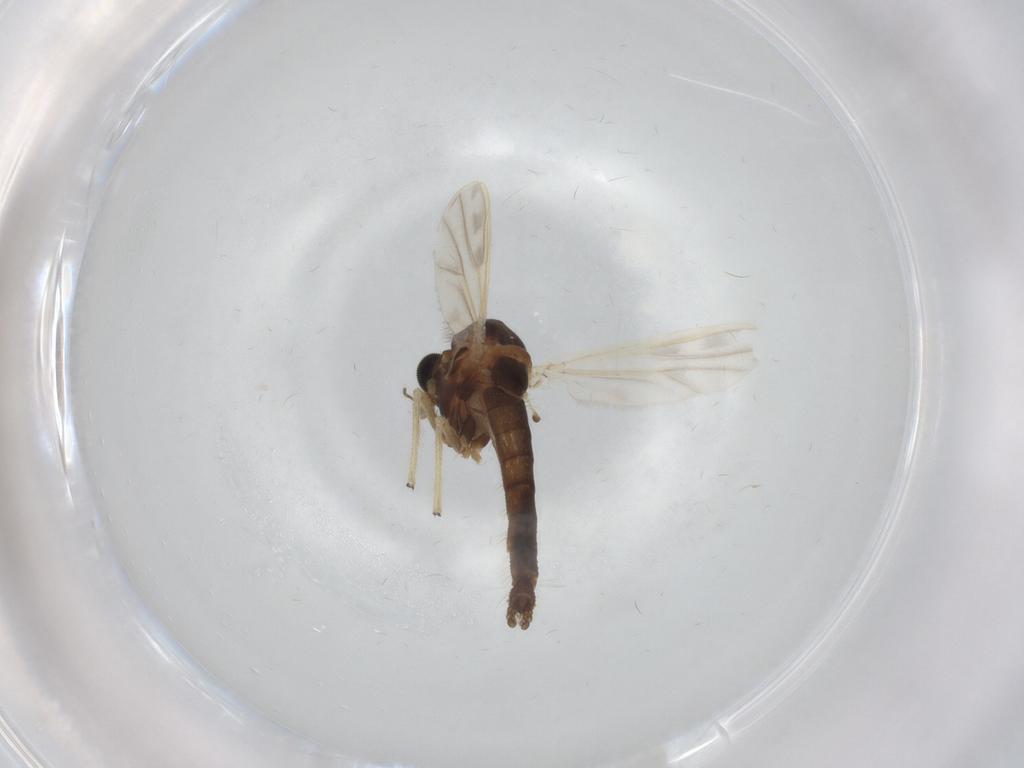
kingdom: Animalia
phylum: Arthropoda
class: Insecta
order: Diptera
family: Chironomidae
